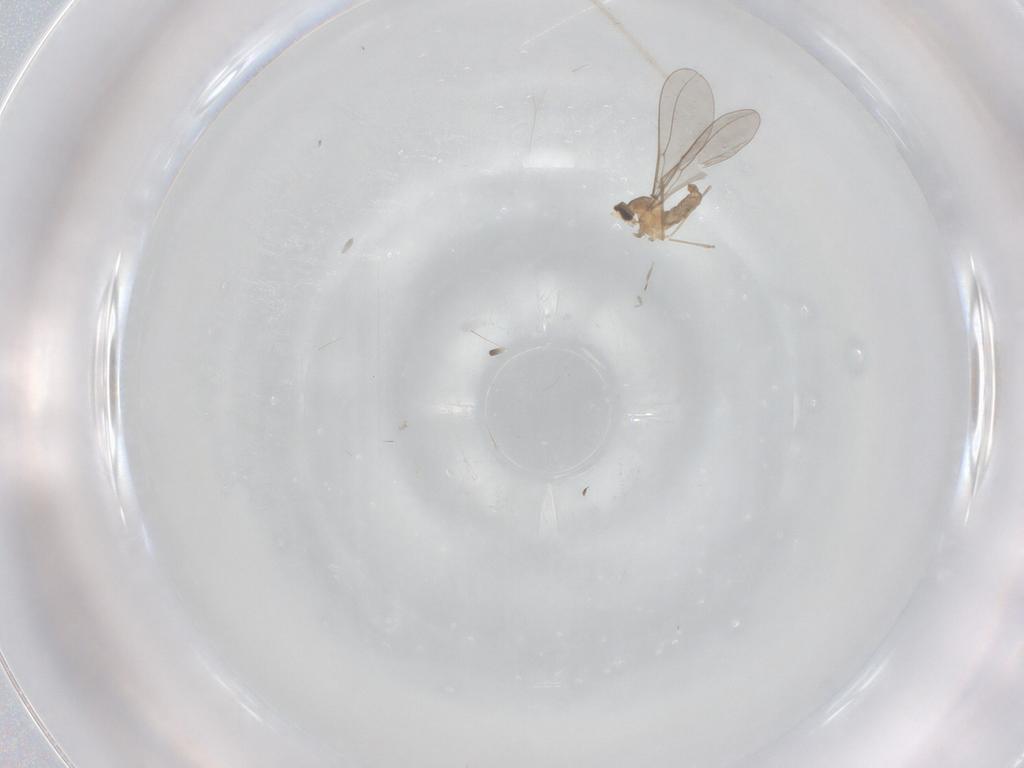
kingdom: Animalia
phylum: Arthropoda
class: Insecta
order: Diptera
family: Cecidomyiidae
